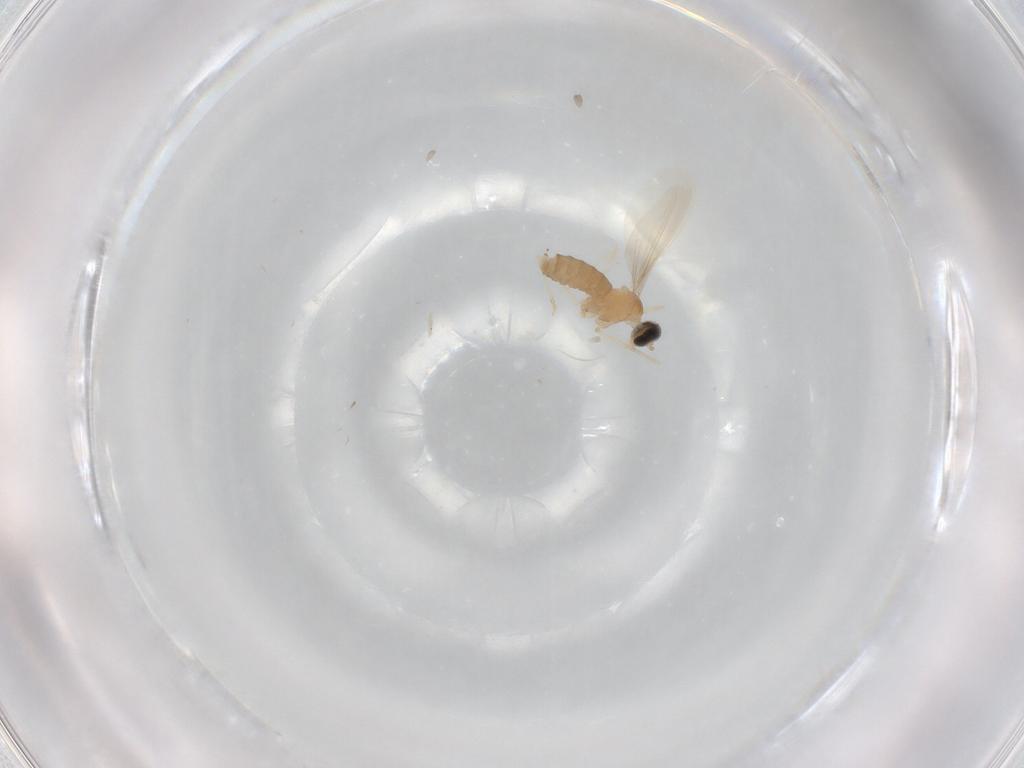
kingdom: Animalia
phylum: Arthropoda
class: Insecta
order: Diptera
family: Cecidomyiidae
